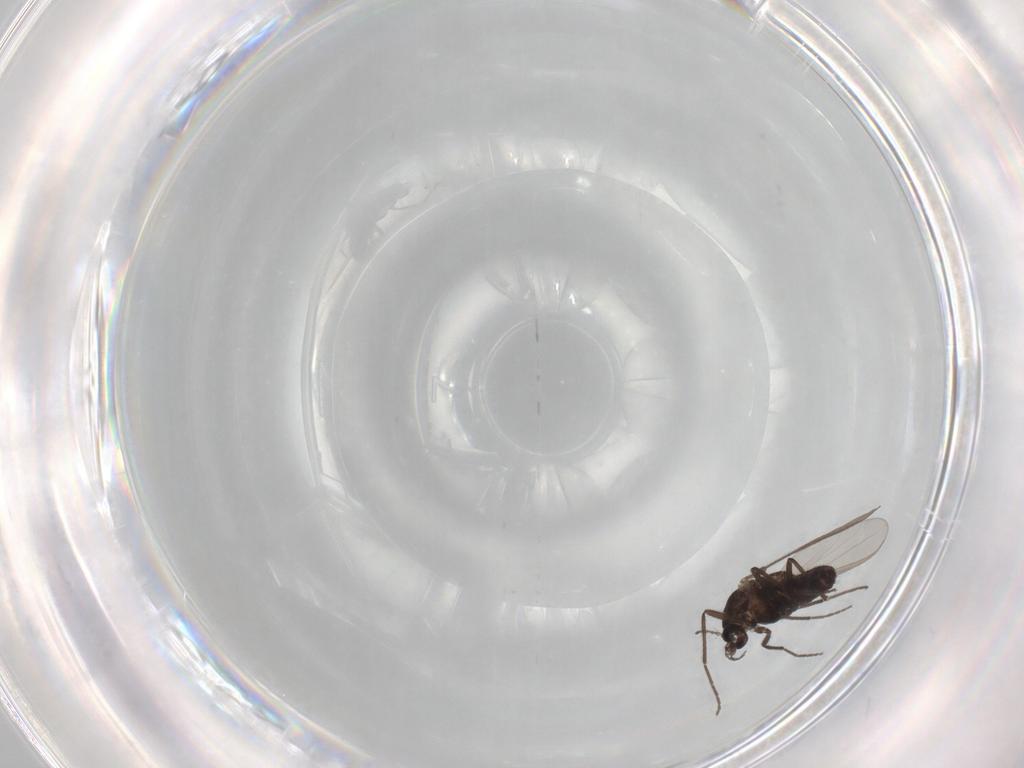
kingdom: Animalia
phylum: Arthropoda
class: Insecta
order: Diptera
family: Chironomidae
